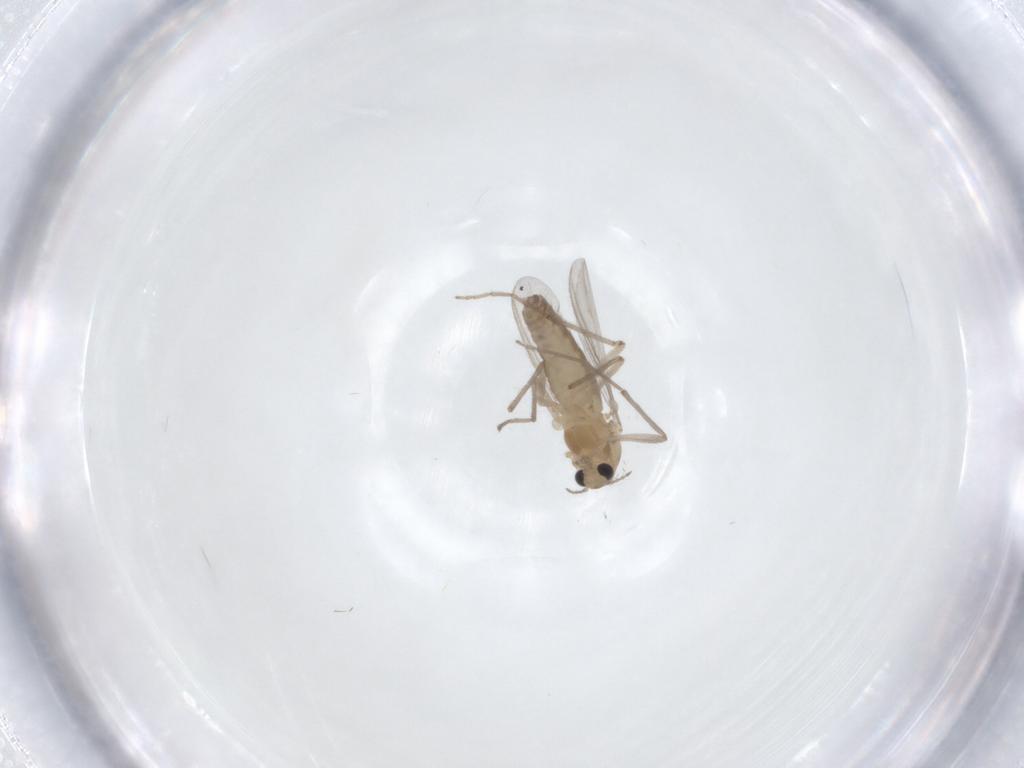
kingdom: Animalia
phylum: Arthropoda
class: Insecta
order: Diptera
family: Chironomidae
